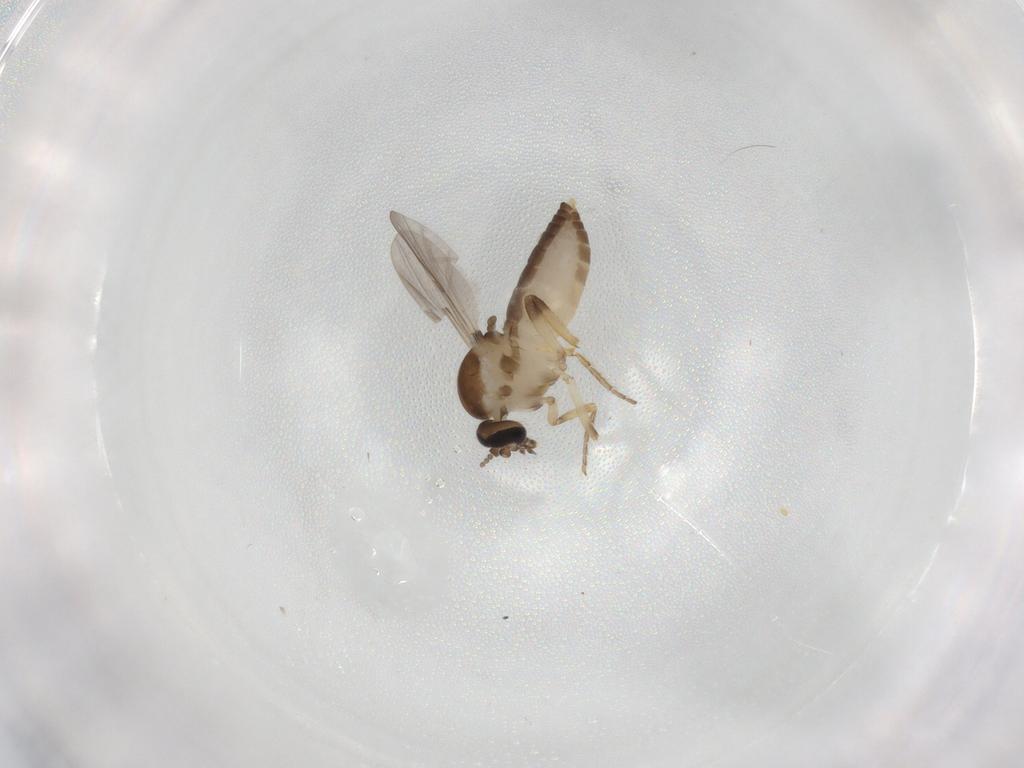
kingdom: Animalia
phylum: Arthropoda
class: Insecta
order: Diptera
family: Ceratopogonidae
